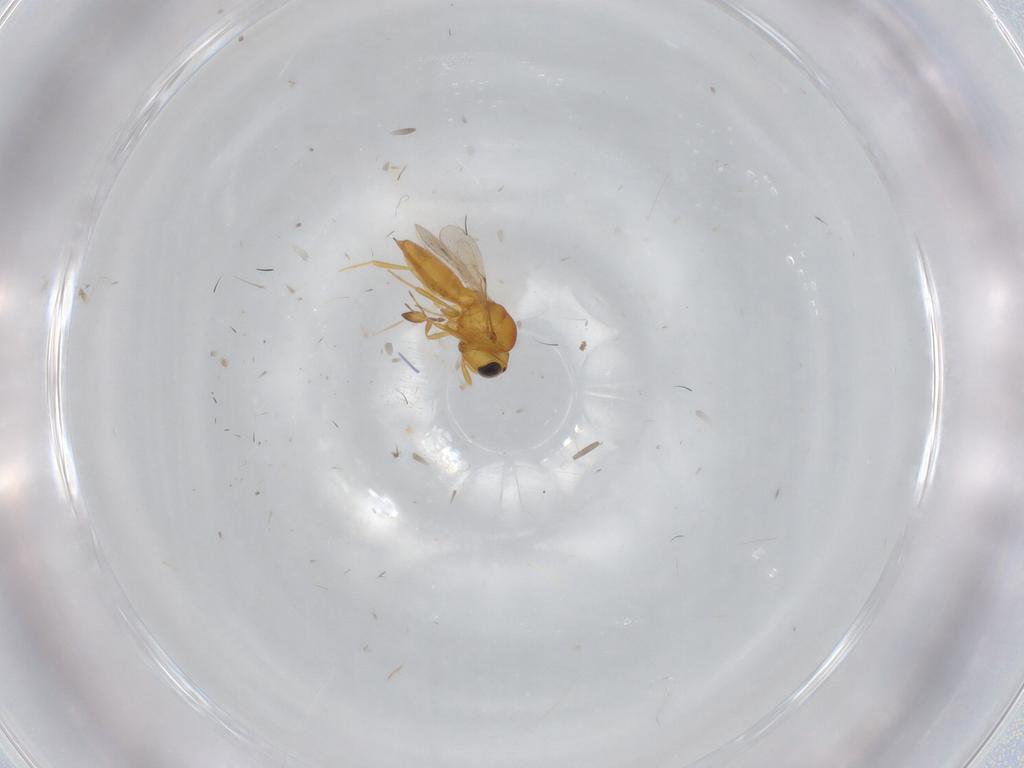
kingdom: Animalia
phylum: Arthropoda
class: Insecta
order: Hymenoptera
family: Scelionidae
